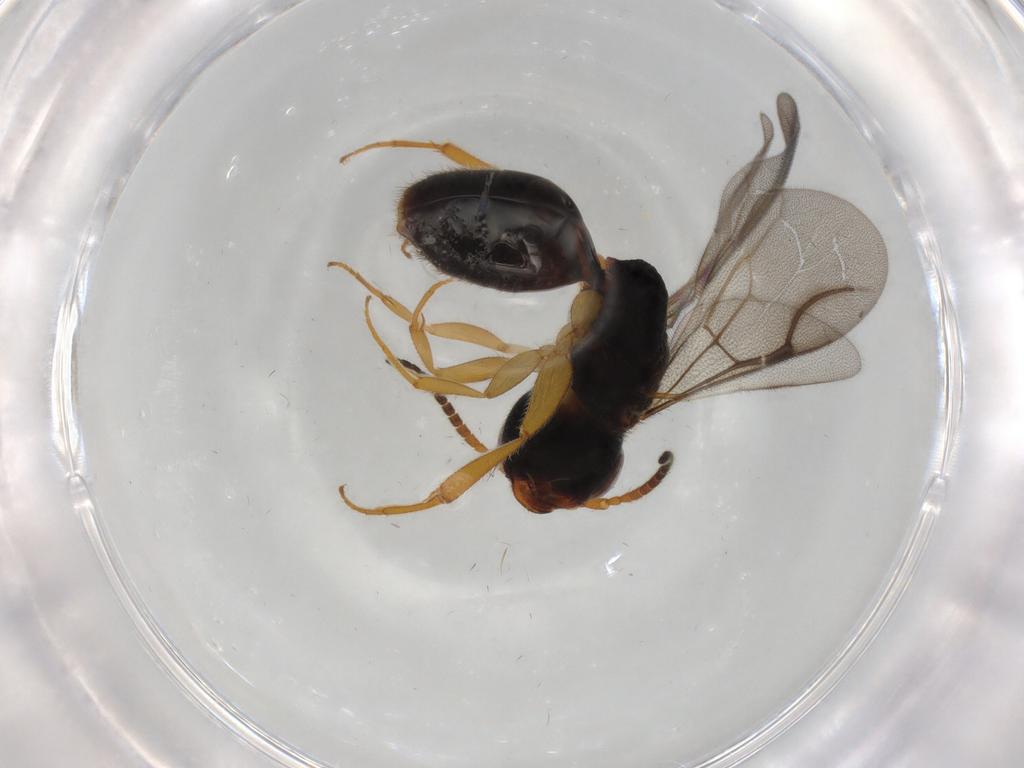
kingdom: Animalia
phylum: Arthropoda
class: Insecta
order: Hymenoptera
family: Bethylidae
